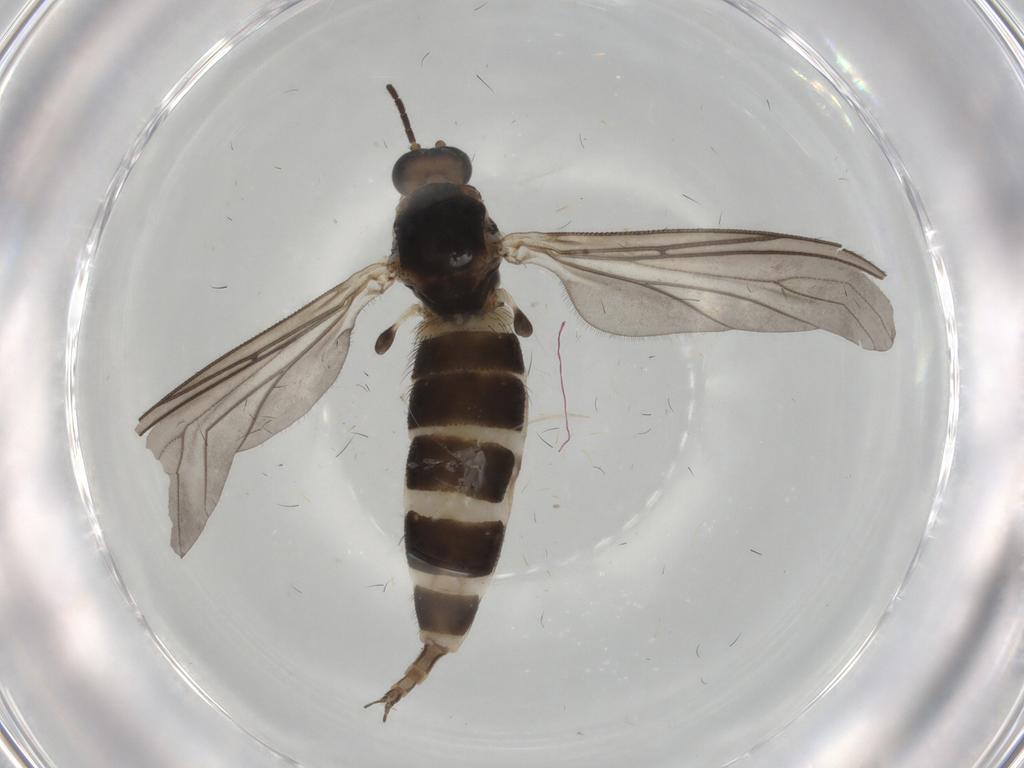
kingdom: Animalia
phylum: Arthropoda
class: Insecta
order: Diptera
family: Sciaridae
